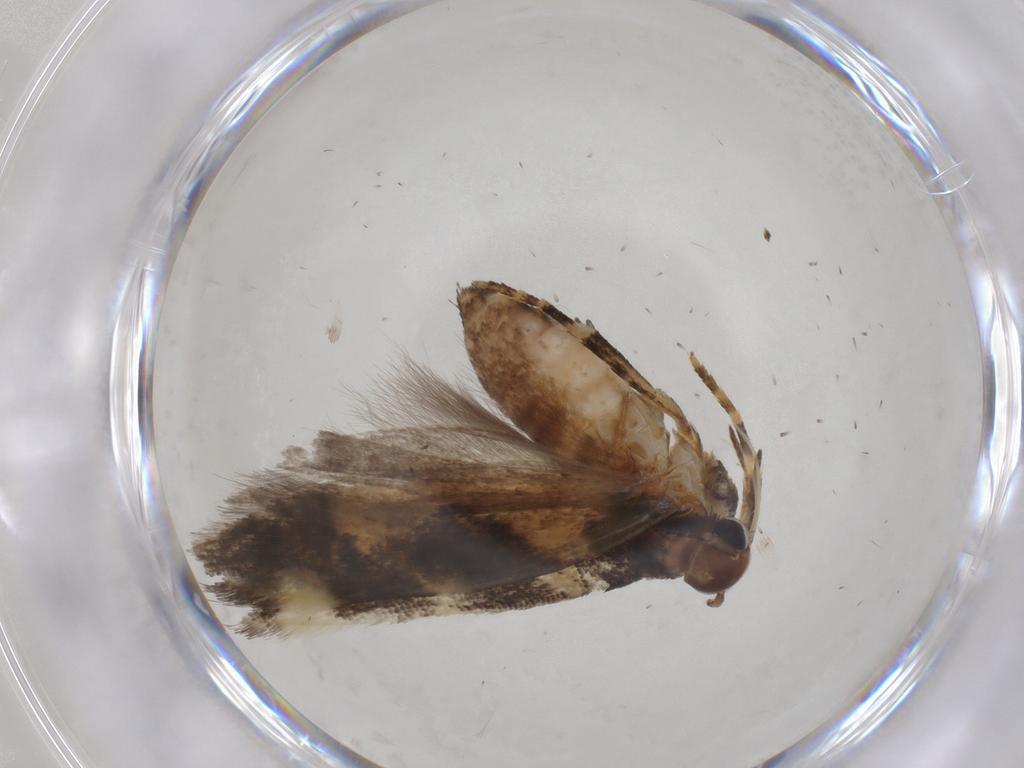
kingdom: Animalia
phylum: Arthropoda
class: Insecta
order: Lepidoptera
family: Gelechiidae
